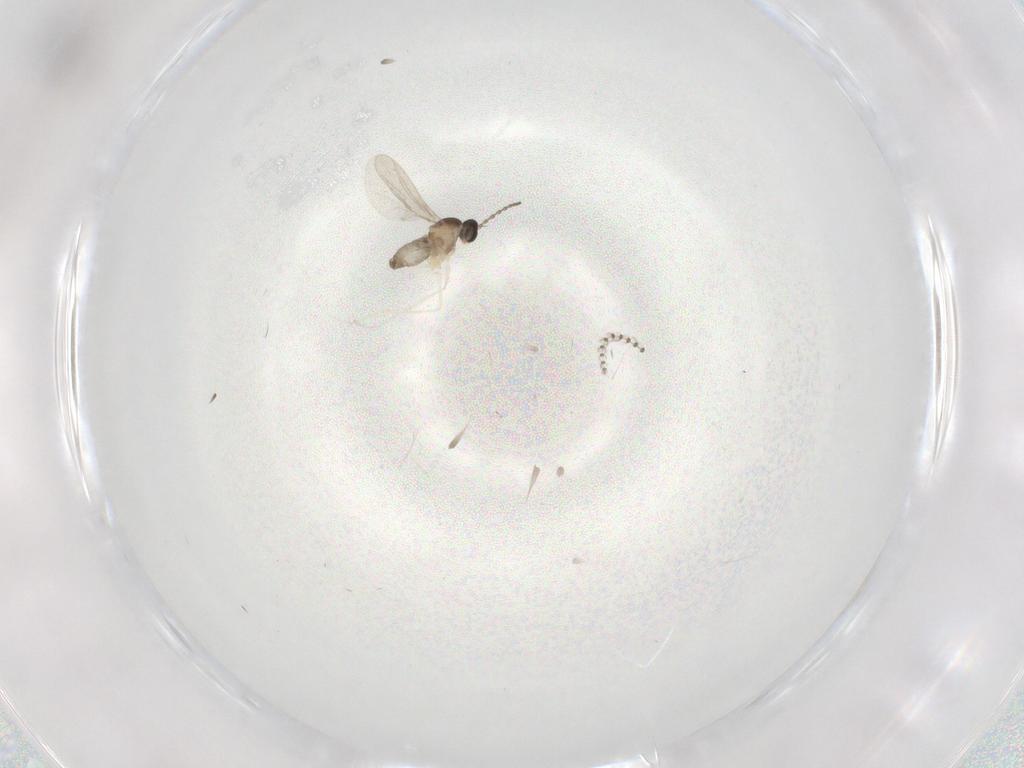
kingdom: Animalia
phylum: Arthropoda
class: Insecta
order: Diptera
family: Cecidomyiidae
